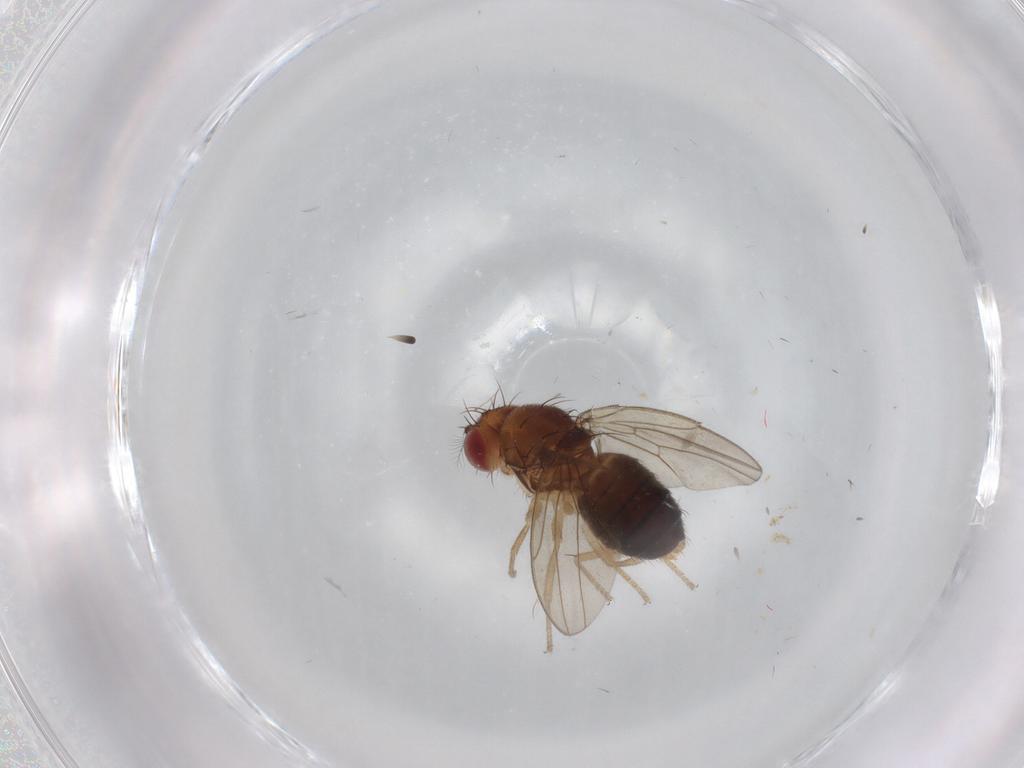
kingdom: Animalia
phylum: Arthropoda
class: Insecta
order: Diptera
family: Drosophilidae
